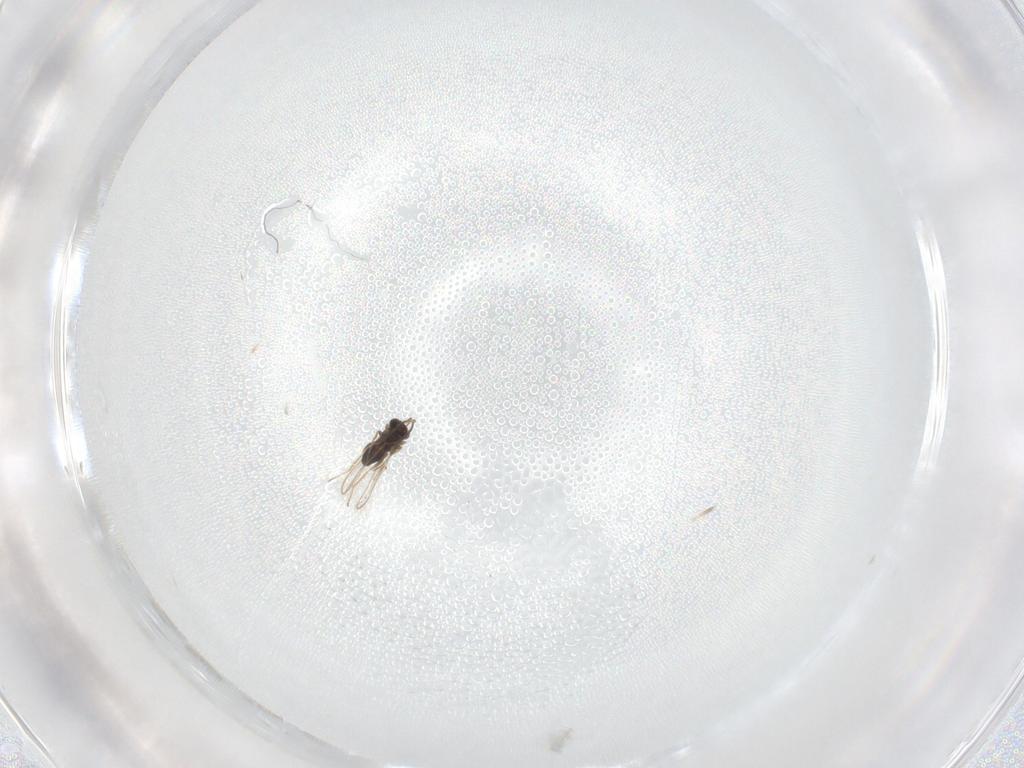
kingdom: Animalia
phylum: Arthropoda
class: Insecta
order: Hymenoptera
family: Mymaridae
